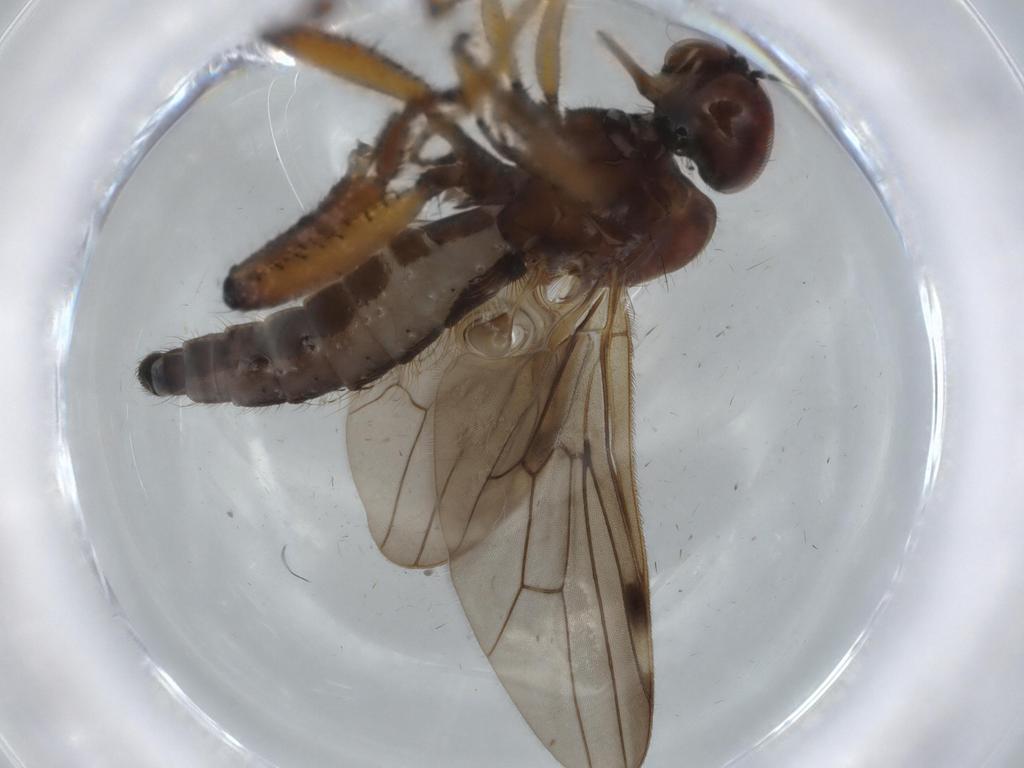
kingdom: Animalia
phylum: Arthropoda
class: Insecta
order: Diptera
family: Hybotidae
